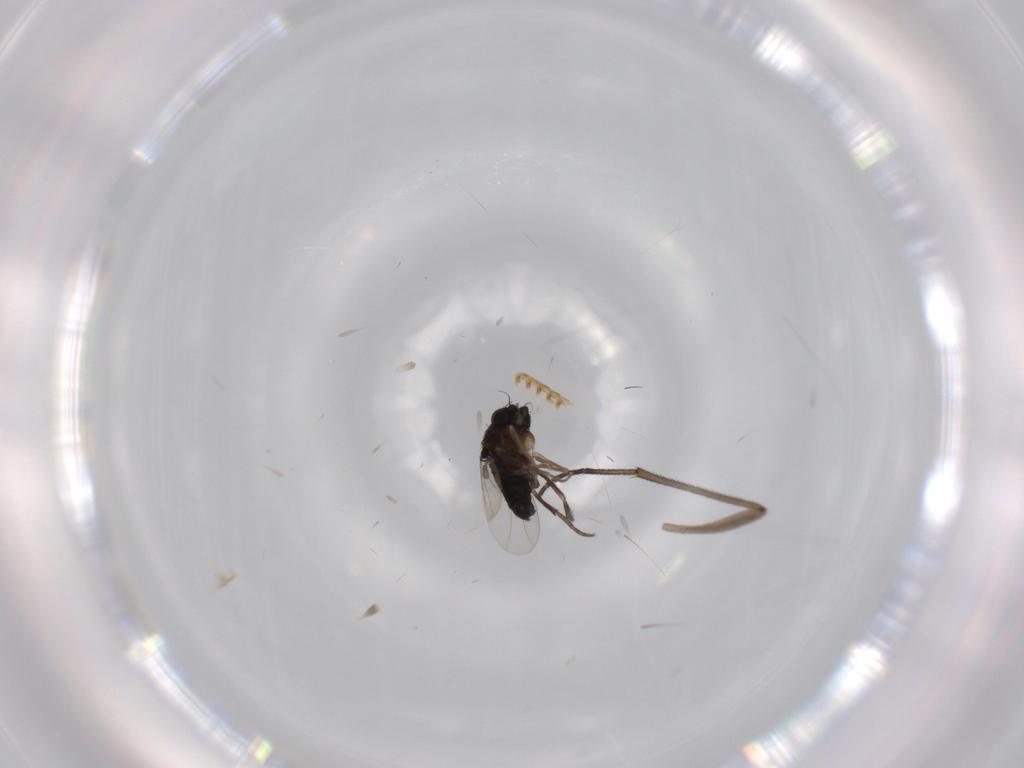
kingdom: Animalia
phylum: Arthropoda
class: Insecta
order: Diptera
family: Phoridae
